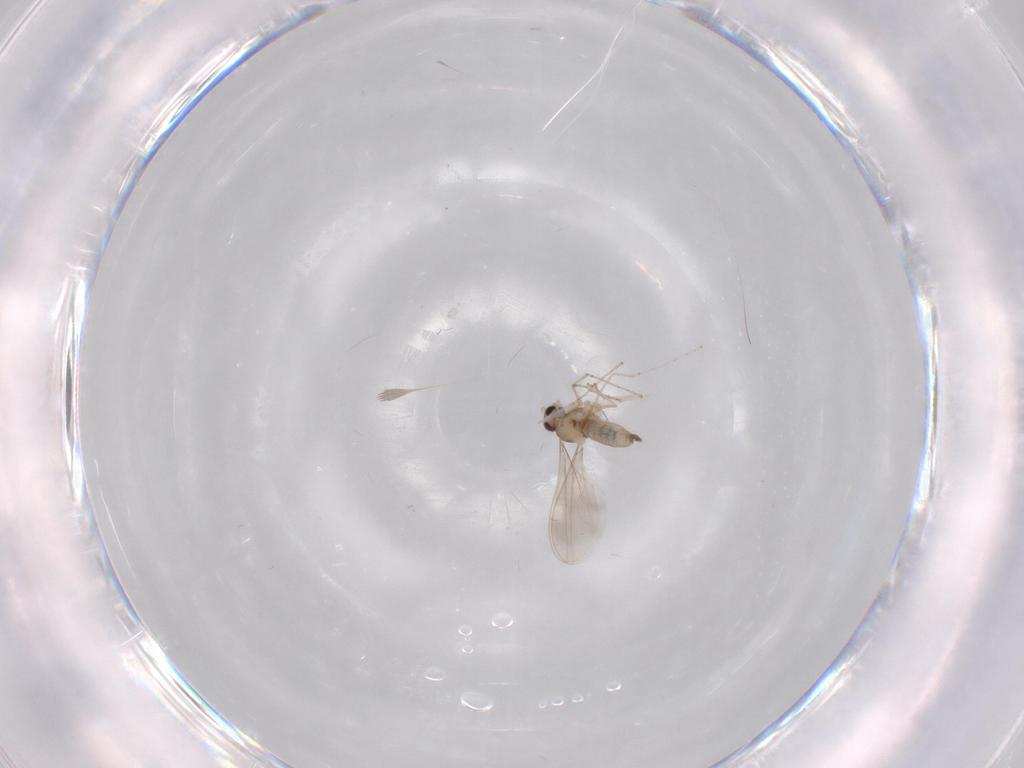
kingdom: Animalia
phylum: Arthropoda
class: Insecta
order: Diptera
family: Cecidomyiidae
